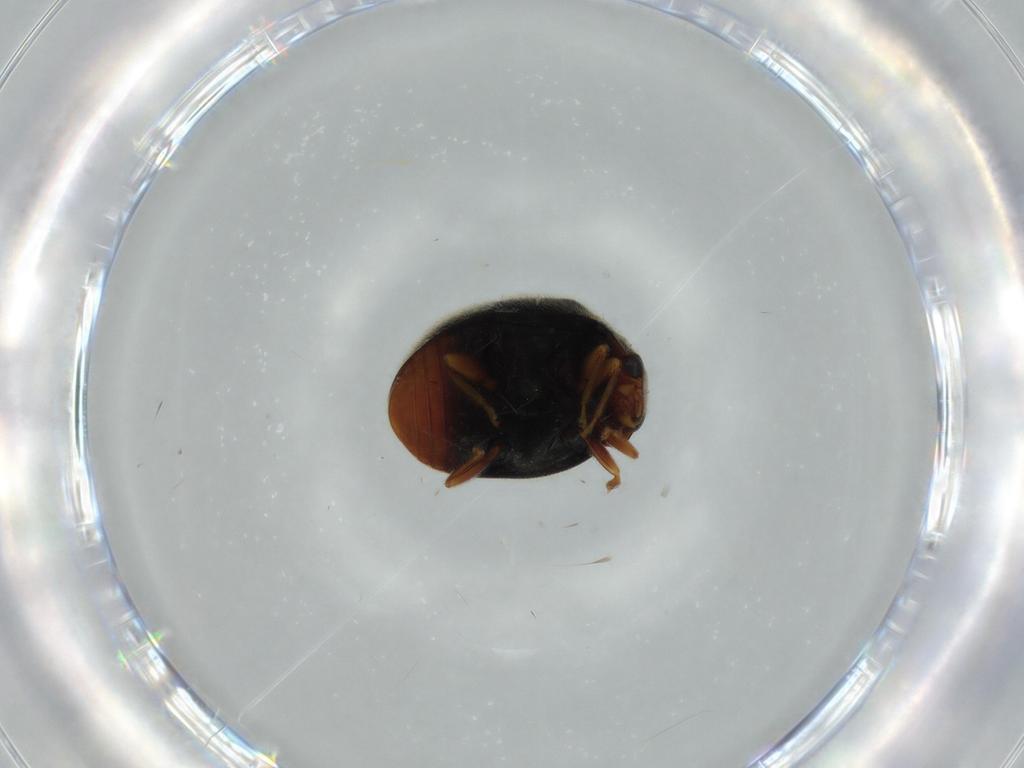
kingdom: Animalia
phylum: Arthropoda
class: Insecta
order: Coleoptera
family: Coccinellidae
